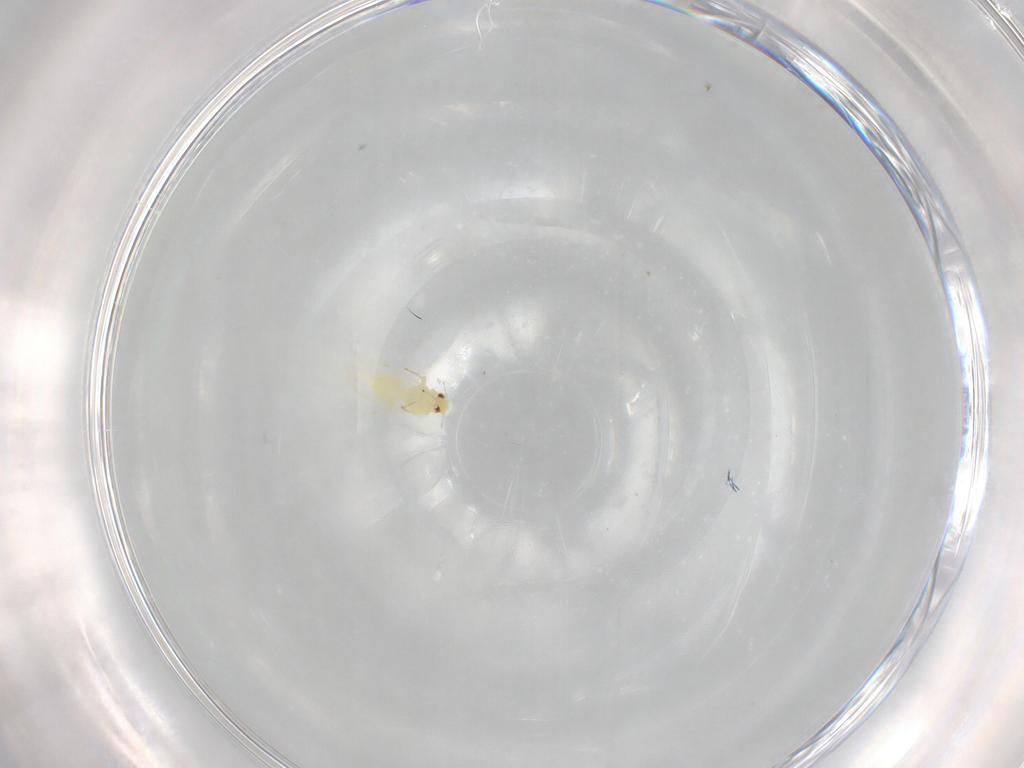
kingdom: Animalia
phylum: Arthropoda
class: Insecta
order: Hemiptera
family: Aleyrodidae
